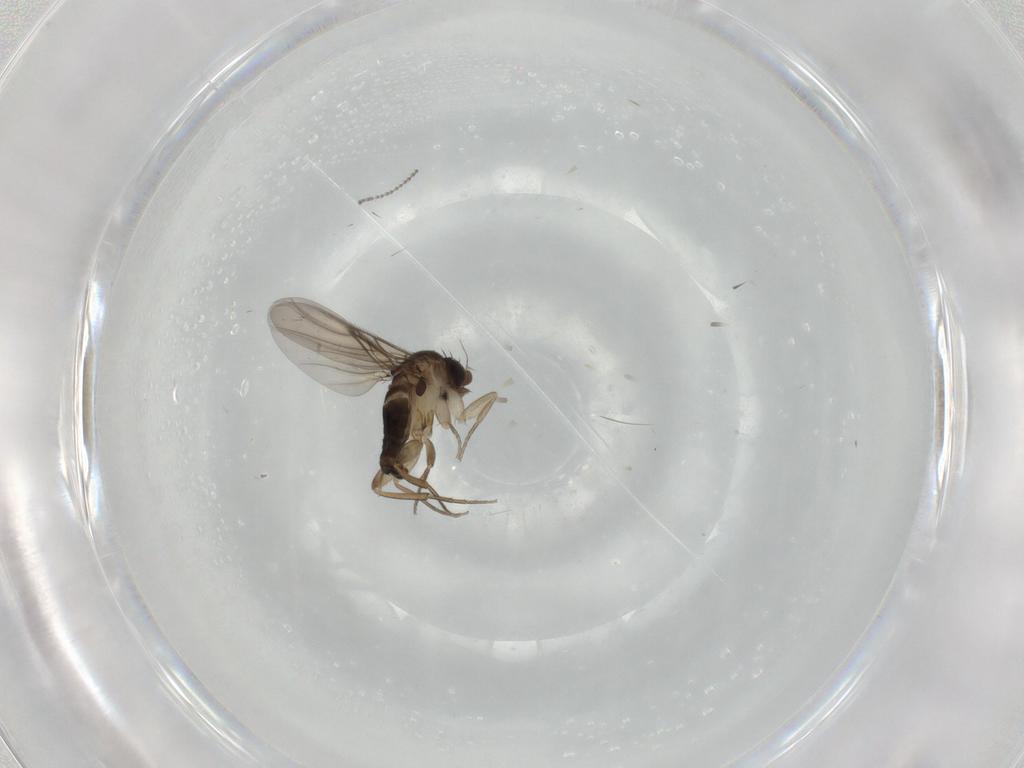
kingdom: Animalia
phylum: Arthropoda
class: Insecta
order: Diptera
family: Phoridae
